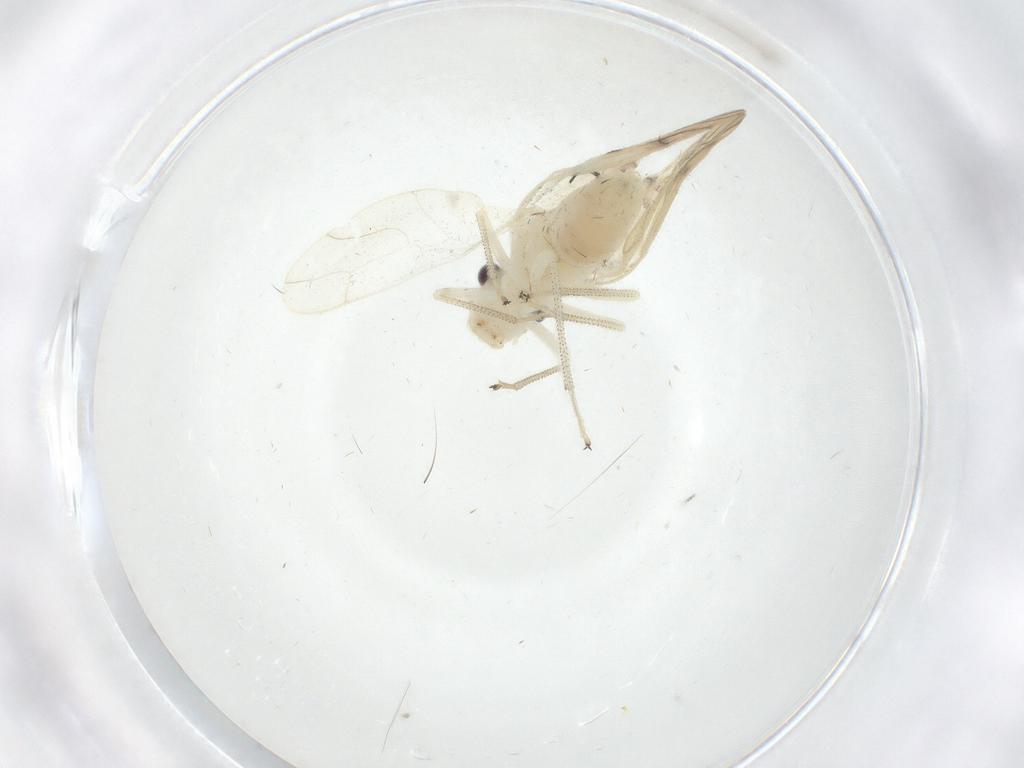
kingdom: Animalia
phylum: Arthropoda
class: Insecta
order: Psocodea
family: Caeciliusidae
